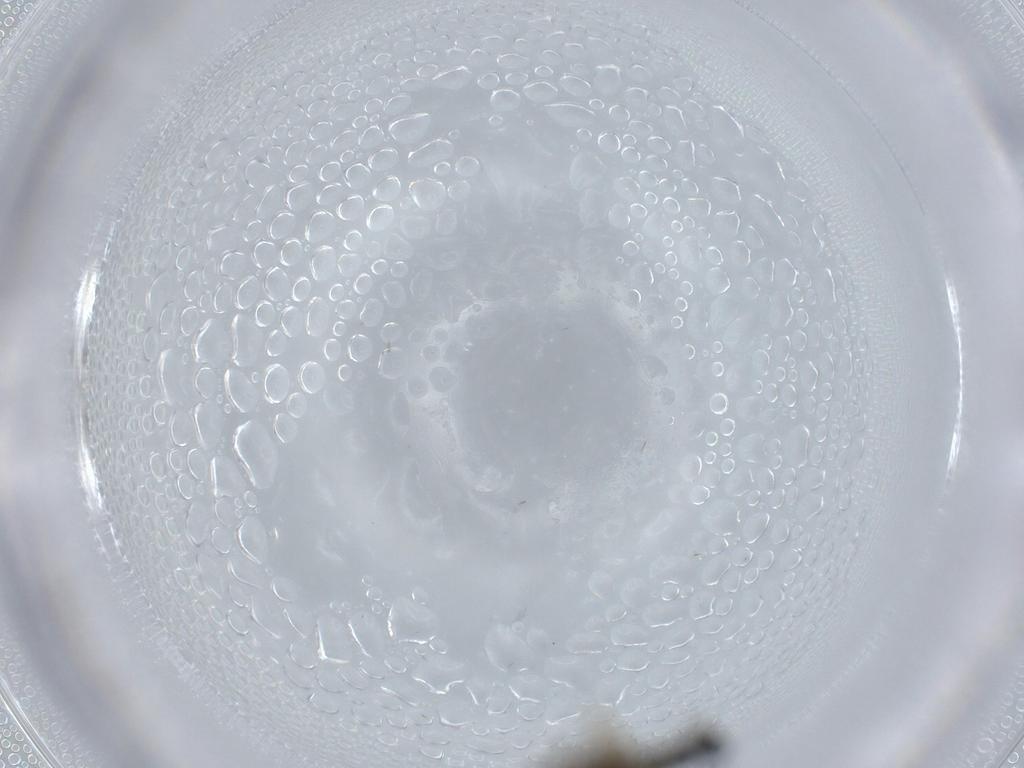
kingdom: Animalia
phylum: Arthropoda
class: Insecta
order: Diptera
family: Sciaridae
